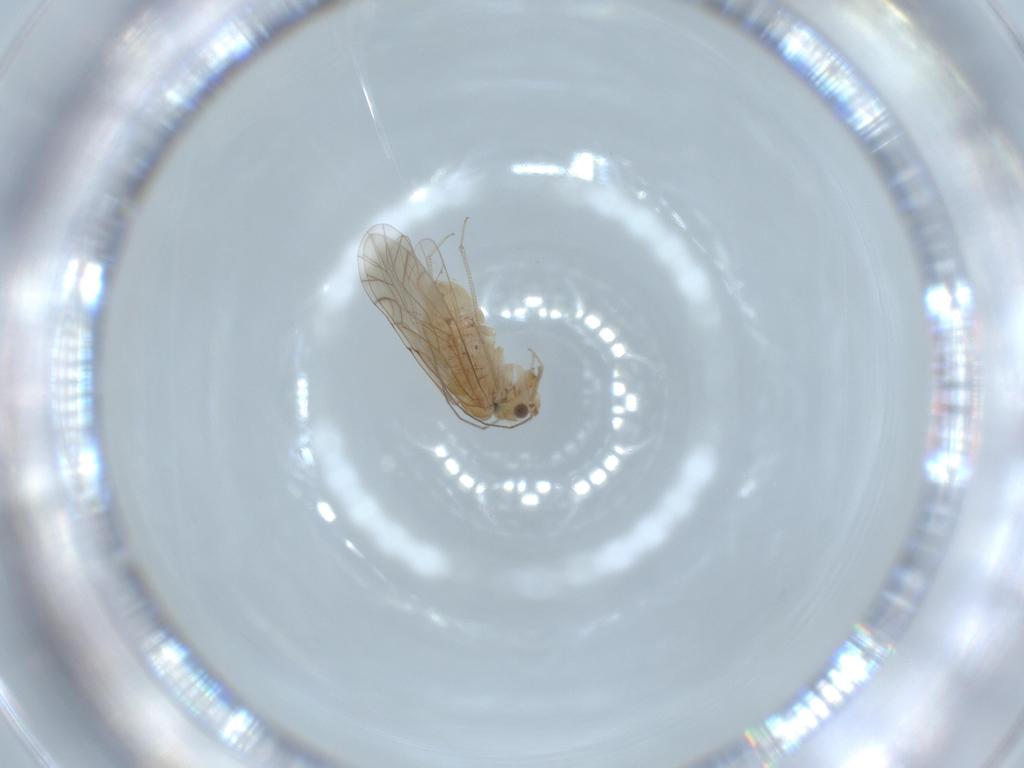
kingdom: Animalia
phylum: Arthropoda
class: Insecta
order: Psocodea
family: Lachesillidae
